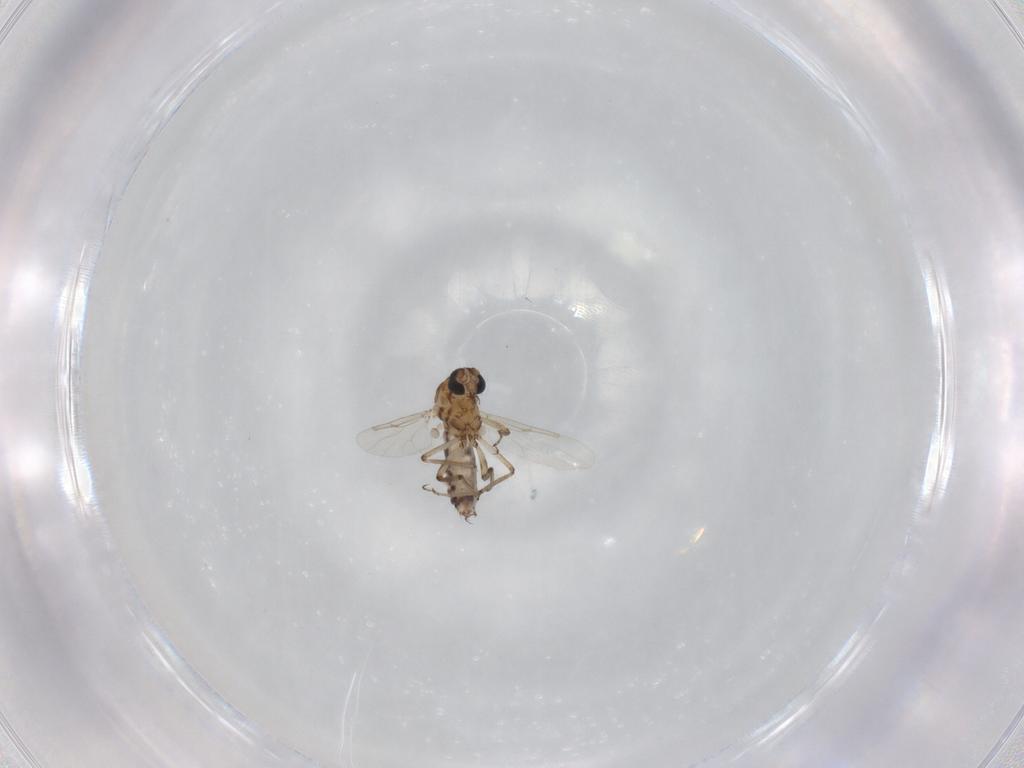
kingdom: Animalia
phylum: Arthropoda
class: Insecta
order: Diptera
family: Ceratopogonidae
